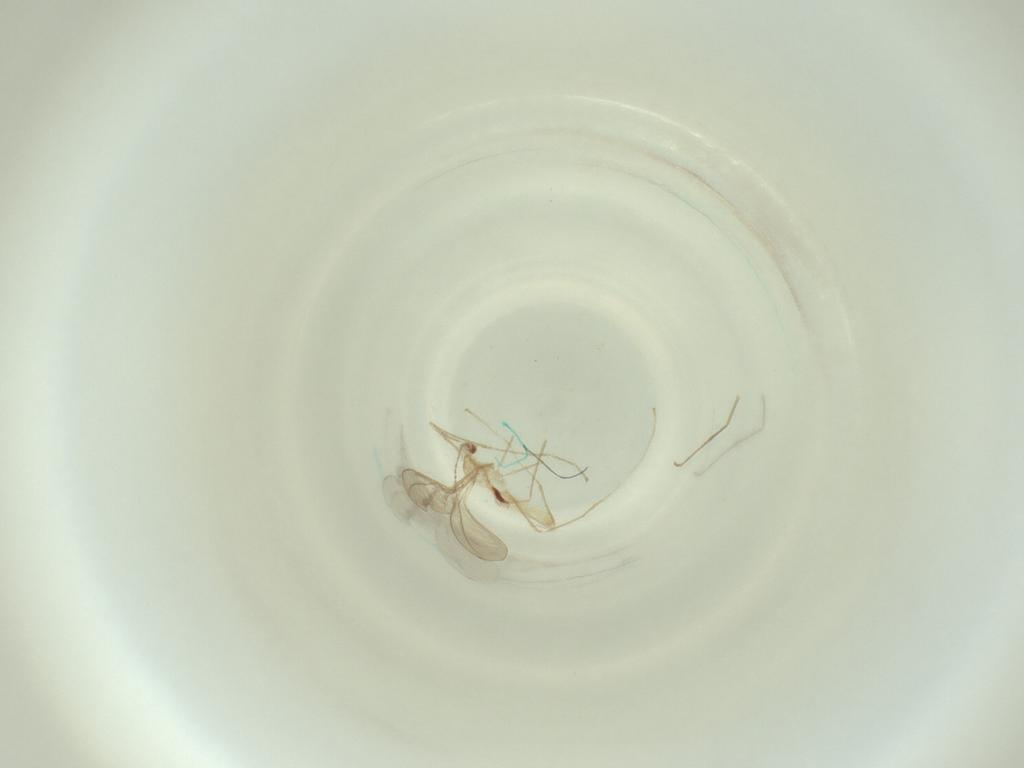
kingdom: Animalia
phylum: Arthropoda
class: Insecta
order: Diptera
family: Cecidomyiidae
